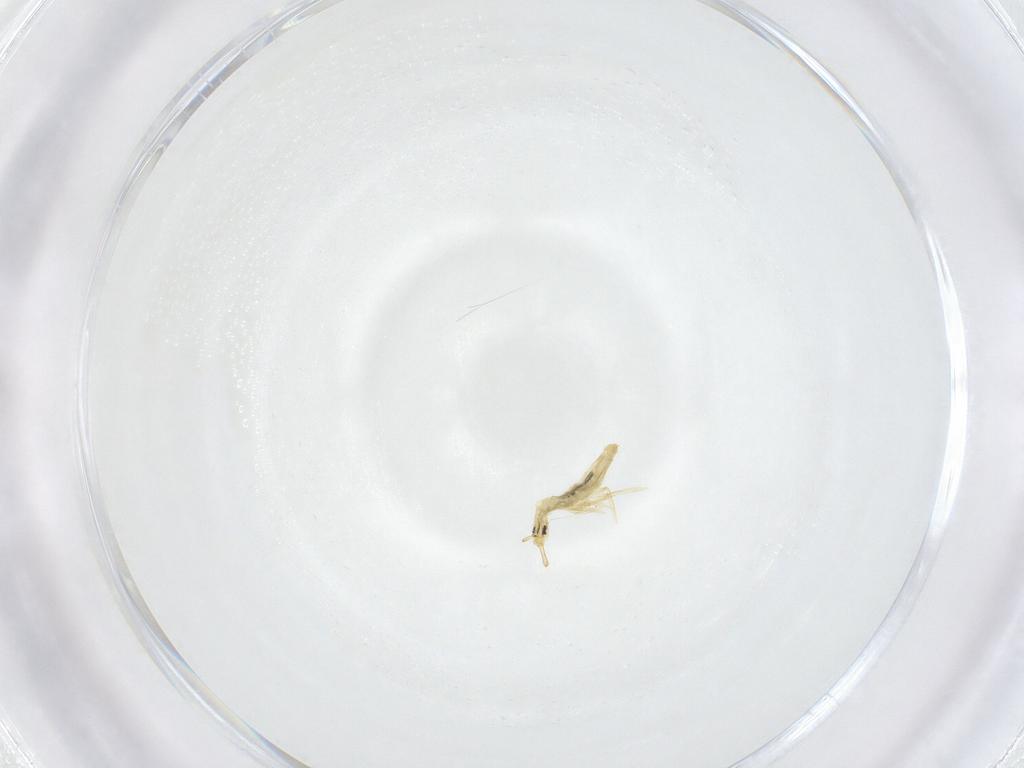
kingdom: Animalia
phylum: Arthropoda
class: Collembola
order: Entomobryomorpha
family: Entomobryidae
